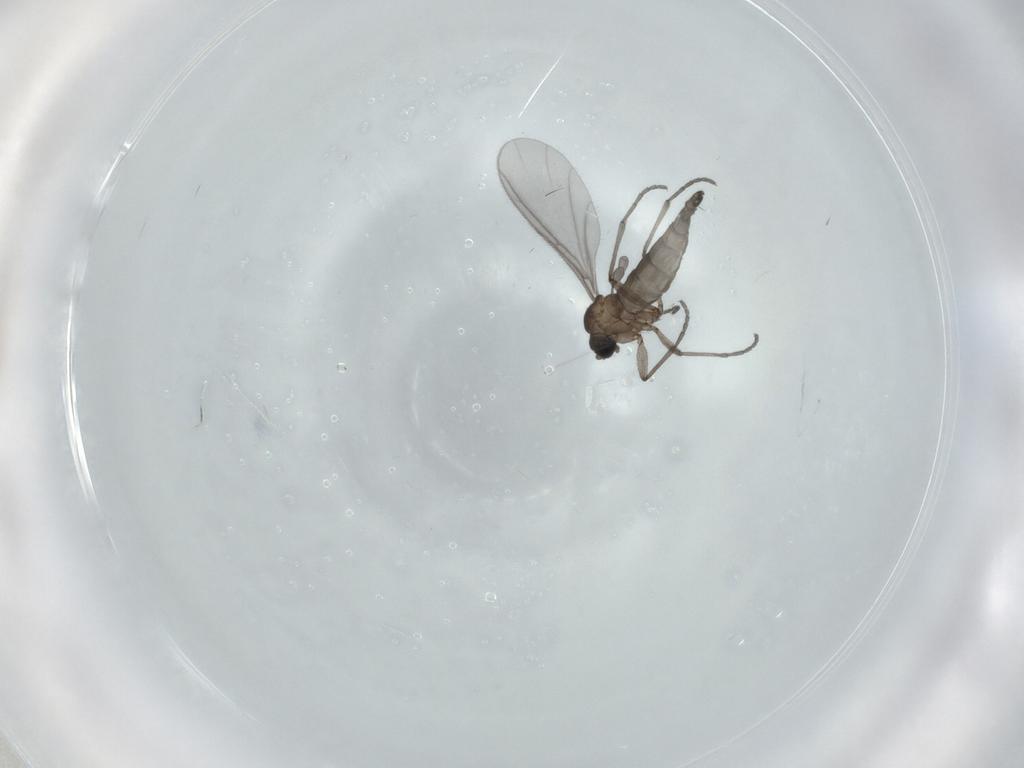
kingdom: Animalia
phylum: Arthropoda
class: Insecta
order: Diptera
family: Sciaridae
